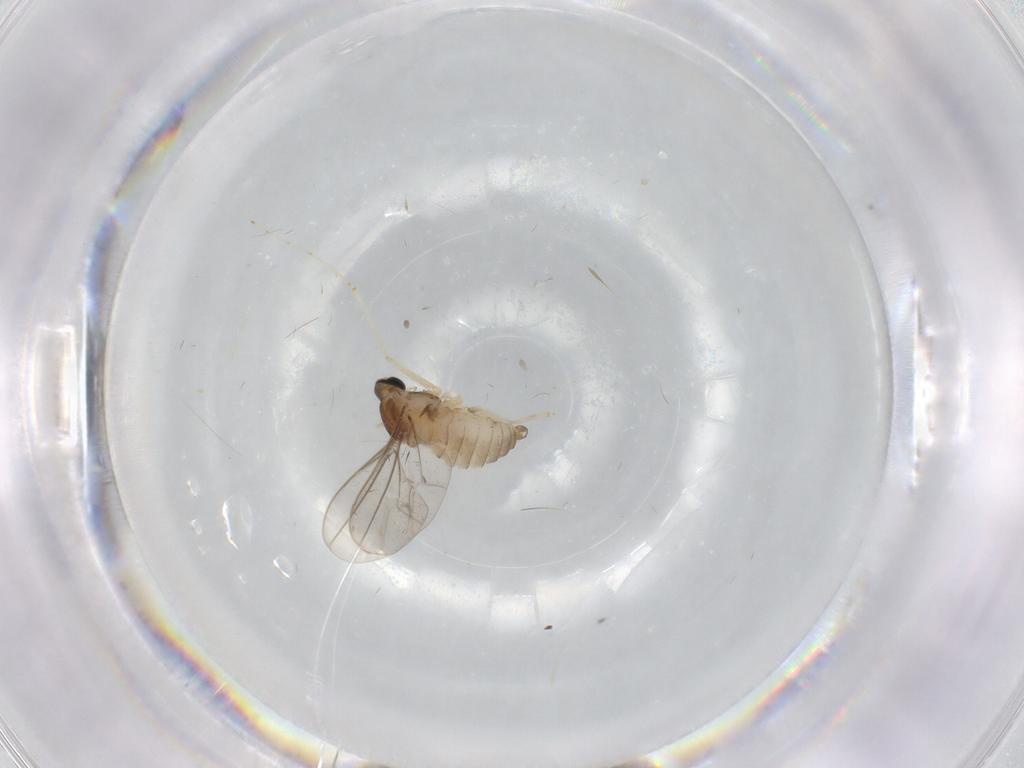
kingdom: Animalia
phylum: Arthropoda
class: Insecta
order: Diptera
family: Cecidomyiidae
